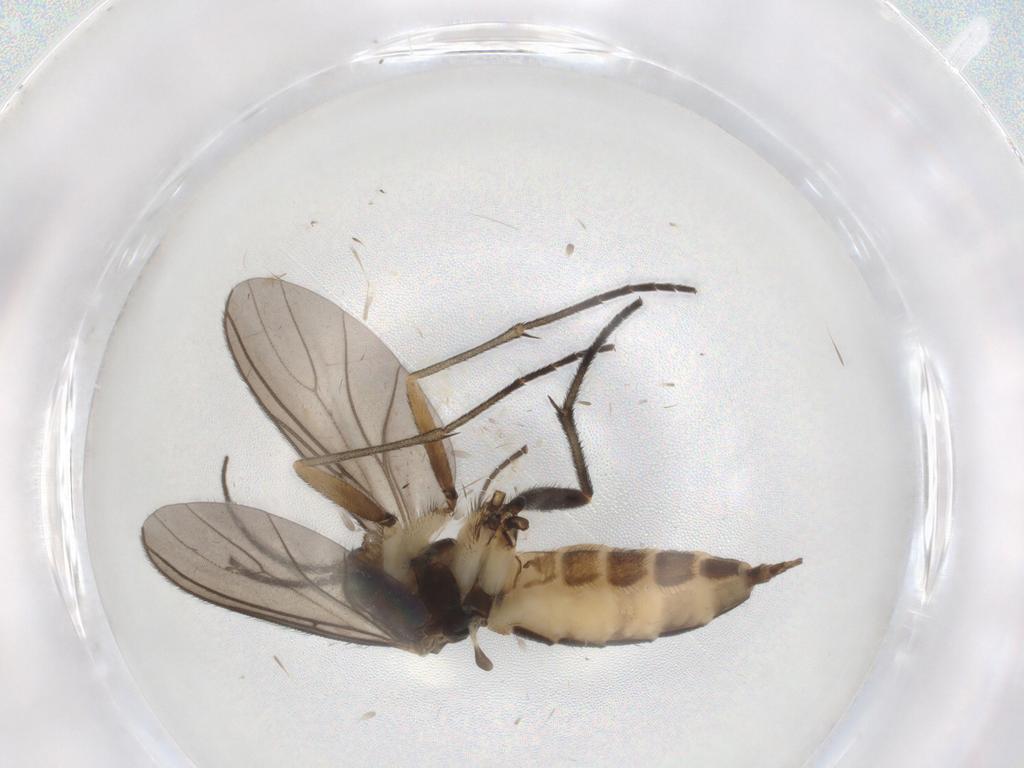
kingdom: Animalia
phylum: Arthropoda
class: Insecta
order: Diptera
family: Sciaridae
